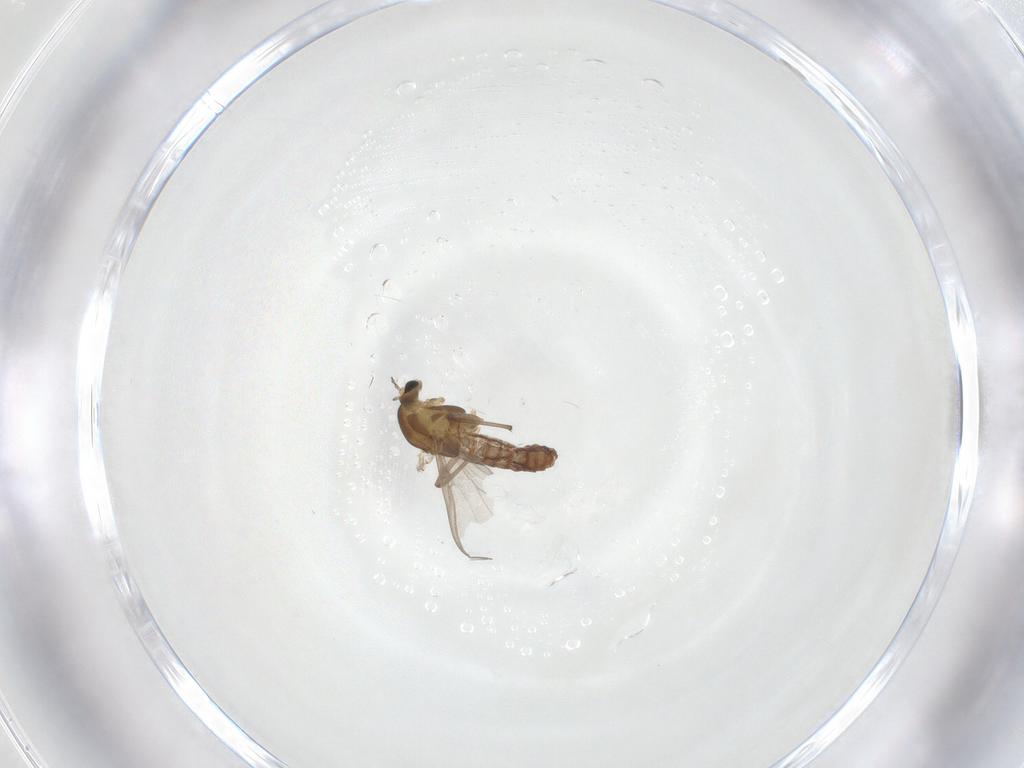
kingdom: Animalia
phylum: Arthropoda
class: Insecta
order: Diptera
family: Chironomidae
